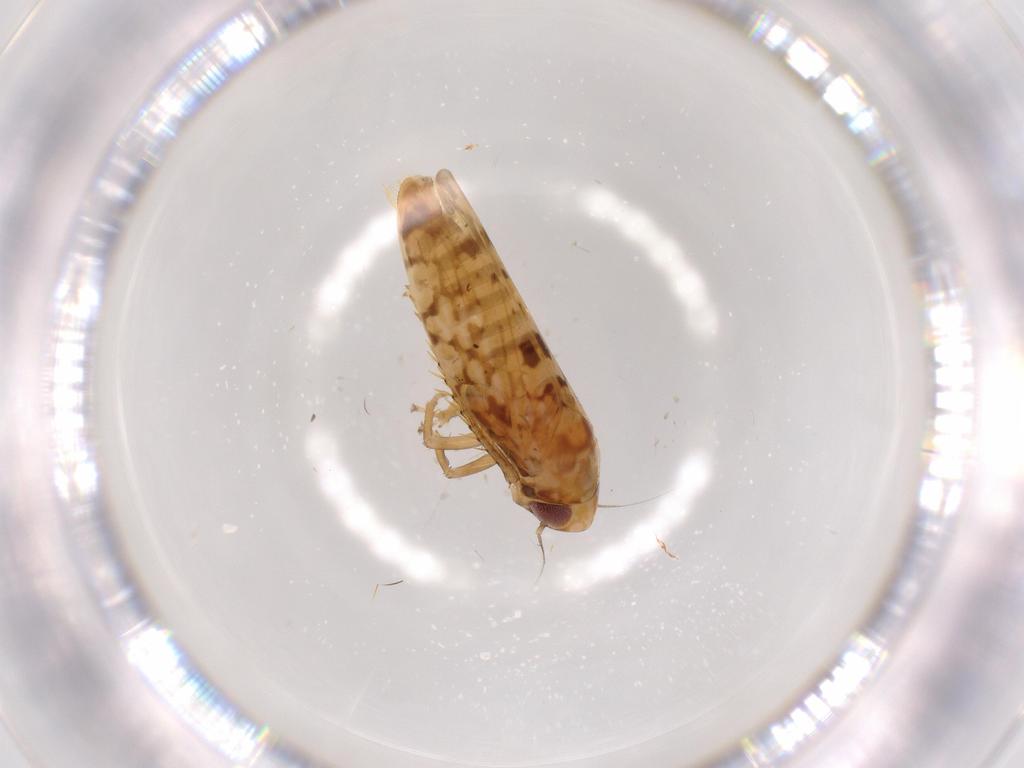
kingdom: Animalia
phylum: Arthropoda
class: Insecta
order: Hemiptera
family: Cicadellidae
